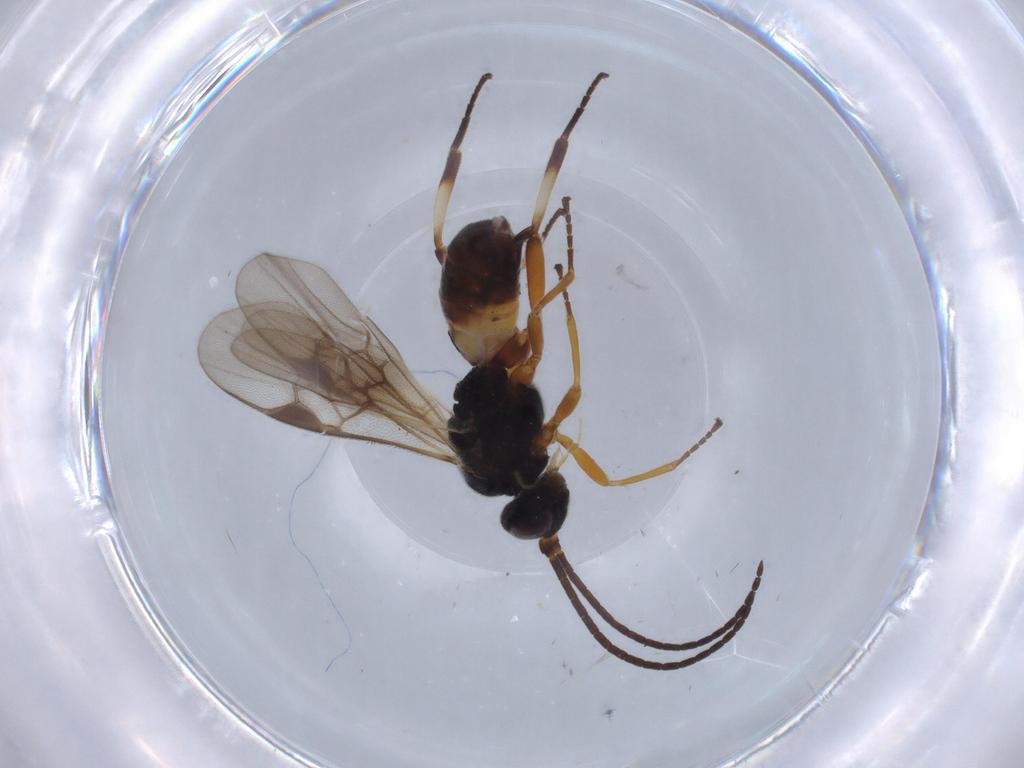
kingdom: Animalia
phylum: Arthropoda
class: Insecta
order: Hymenoptera
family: Braconidae
